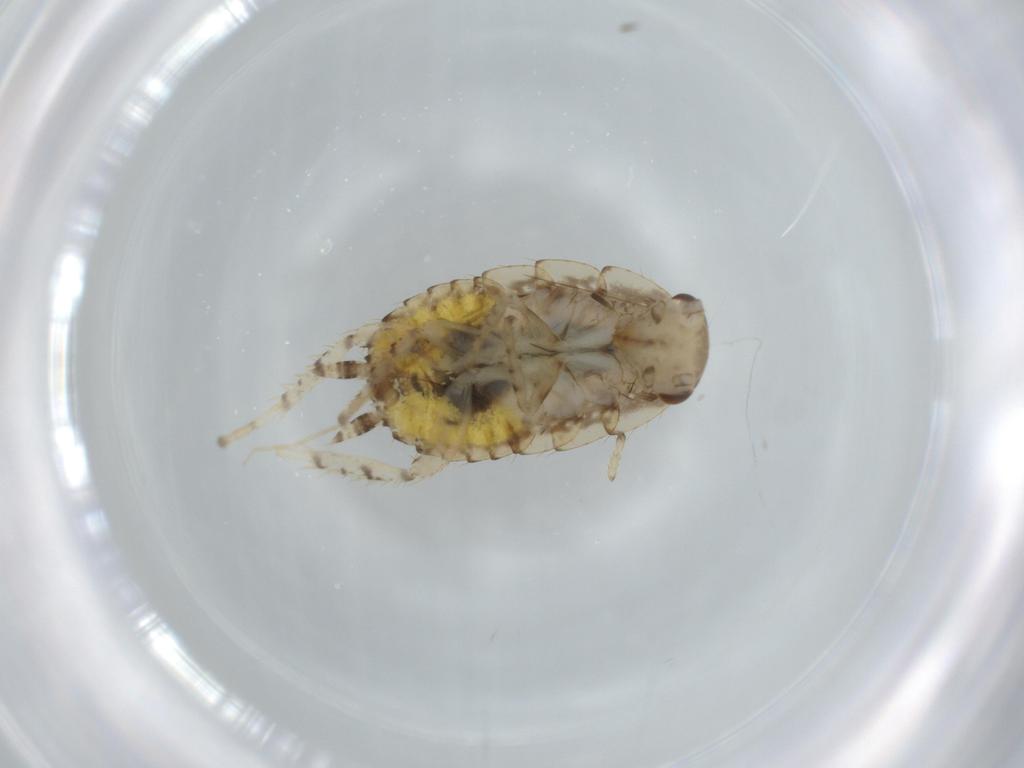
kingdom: Animalia
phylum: Arthropoda
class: Insecta
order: Blattodea
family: Ectobiidae
